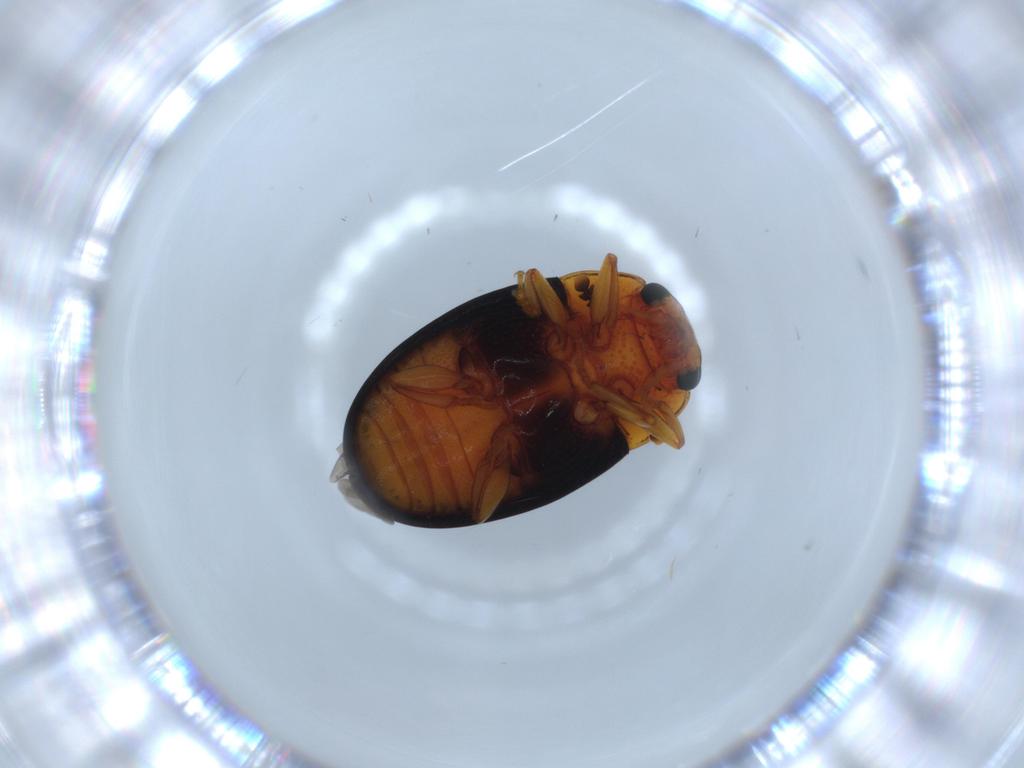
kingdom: Animalia
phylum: Arthropoda
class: Insecta
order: Coleoptera
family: Erotylidae
